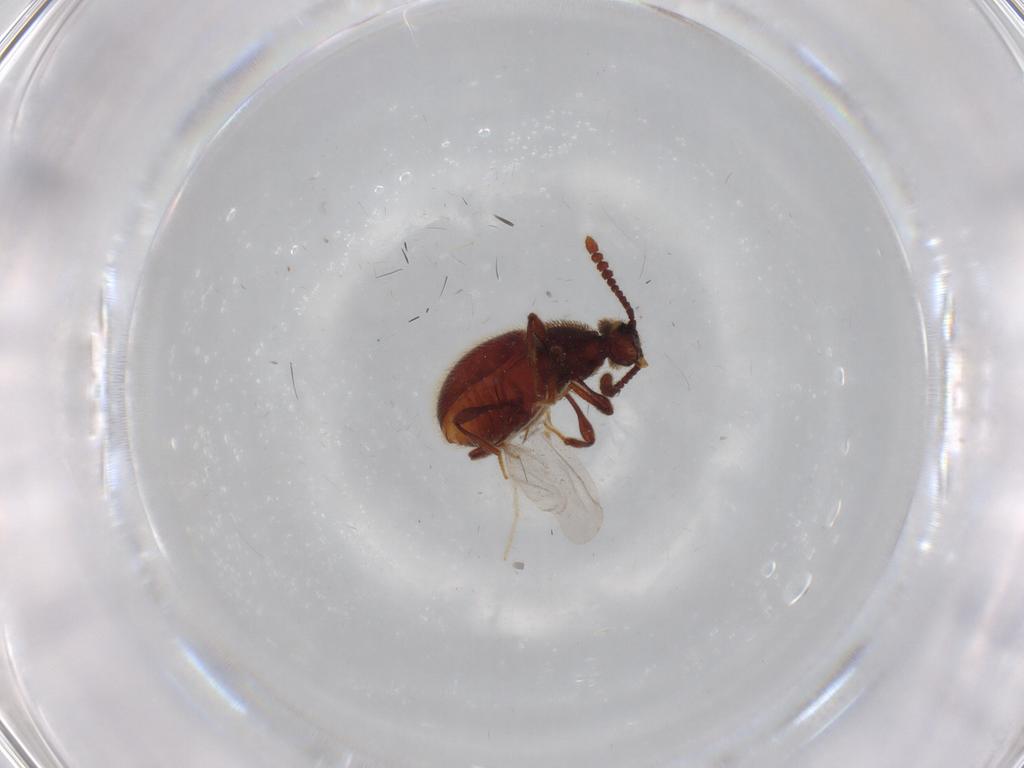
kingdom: Animalia
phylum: Arthropoda
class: Insecta
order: Coleoptera
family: Staphylinidae
